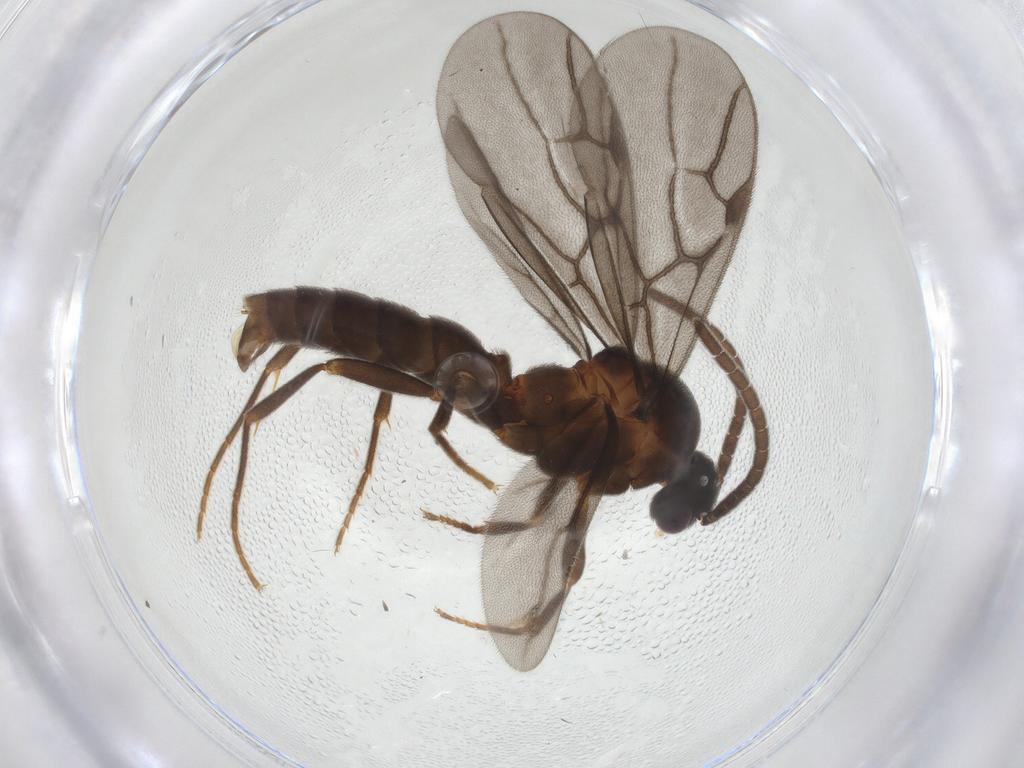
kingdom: Animalia
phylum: Arthropoda
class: Insecta
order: Hymenoptera
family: Formicidae
